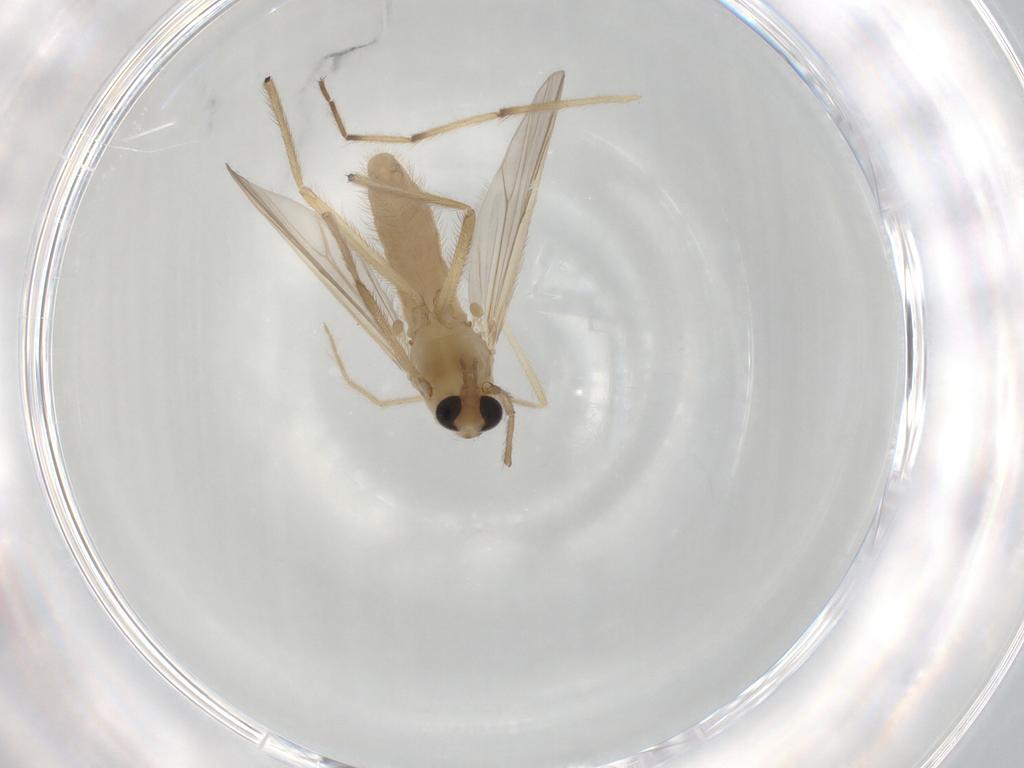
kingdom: Animalia
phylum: Arthropoda
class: Insecta
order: Diptera
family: Chironomidae
